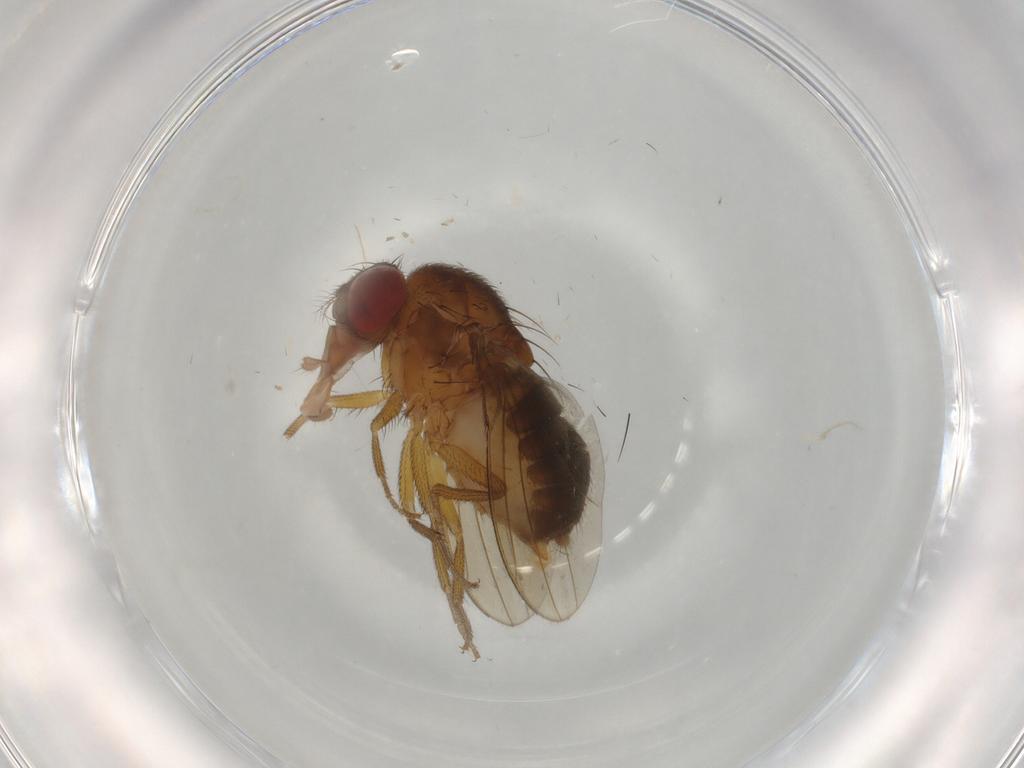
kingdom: Animalia
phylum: Arthropoda
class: Insecta
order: Diptera
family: Drosophilidae
